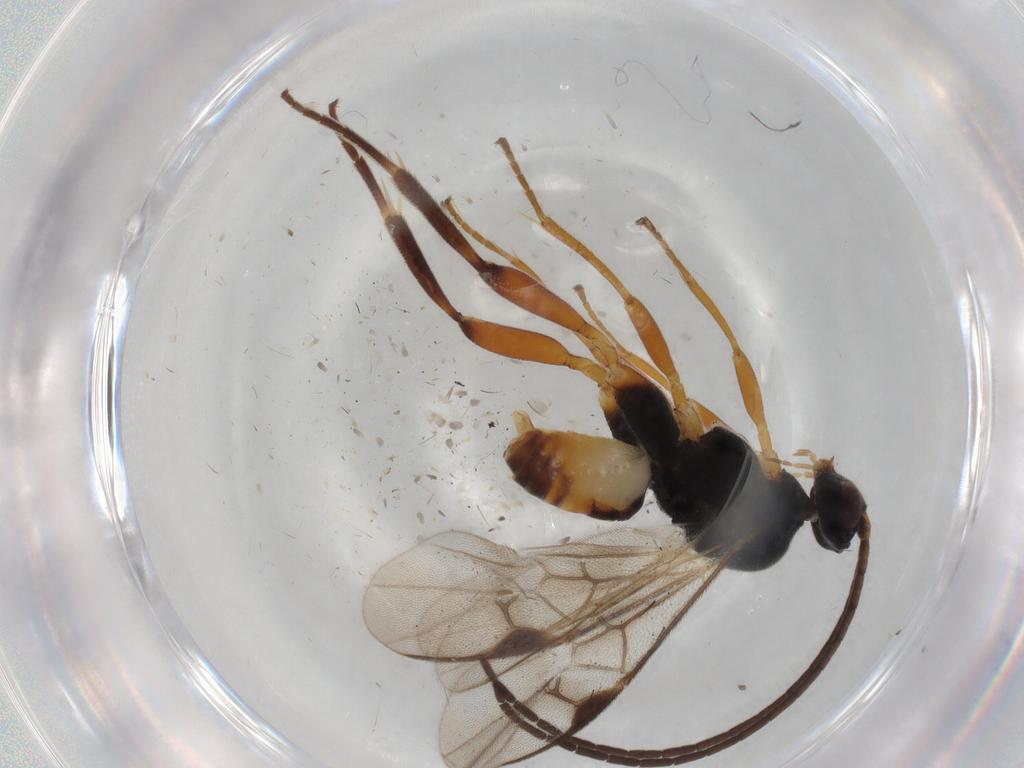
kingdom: Animalia
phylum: Arthropoda
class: Insecta
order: Hymenoptera
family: Braconidae
